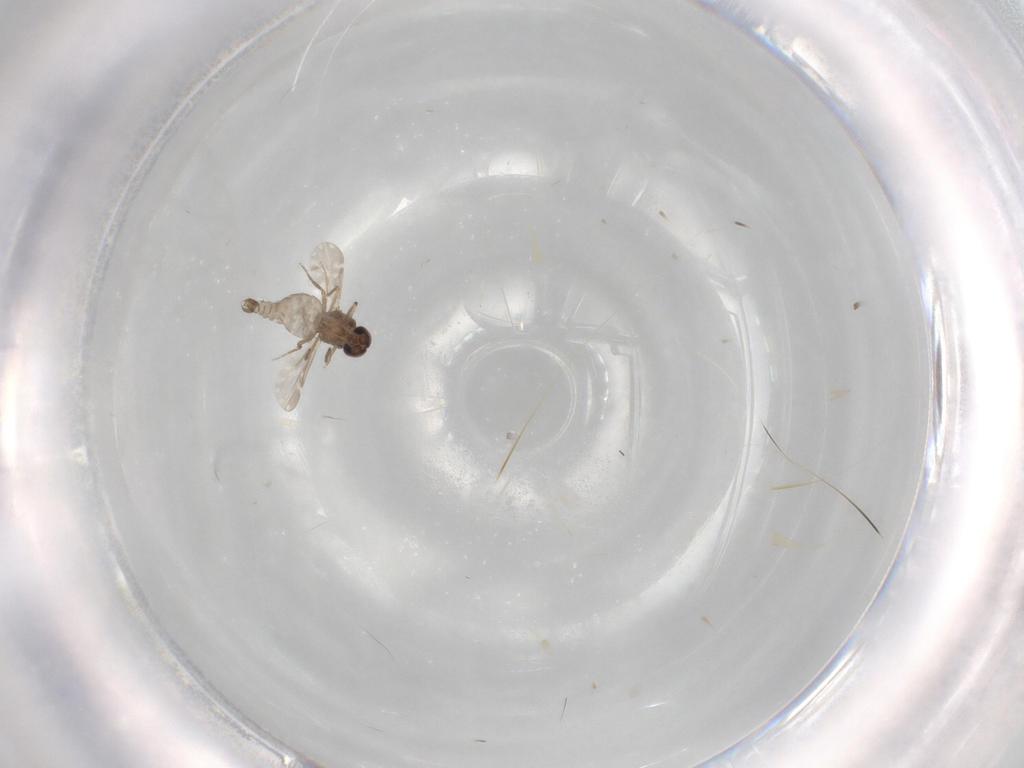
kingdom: Animalia
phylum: Arthropoda
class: Insecta
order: Diptera
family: Ceratopogonidae
